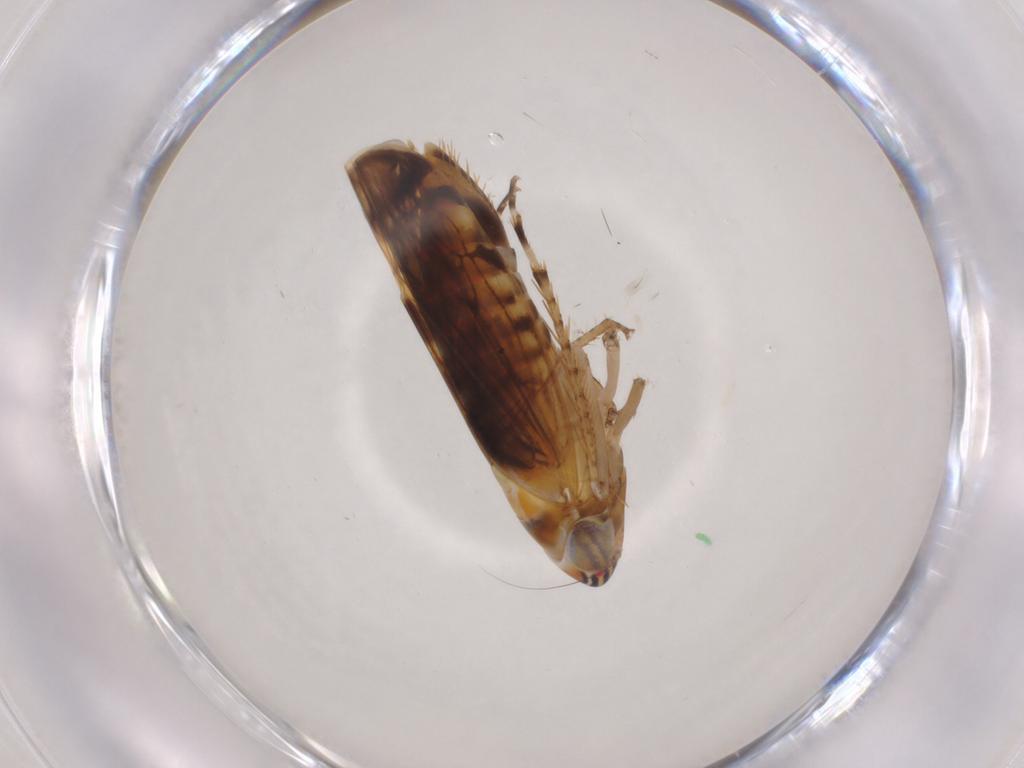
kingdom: Animalia
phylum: Arthropoda
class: Insecta
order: Hemiptera
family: Cicadellidae
